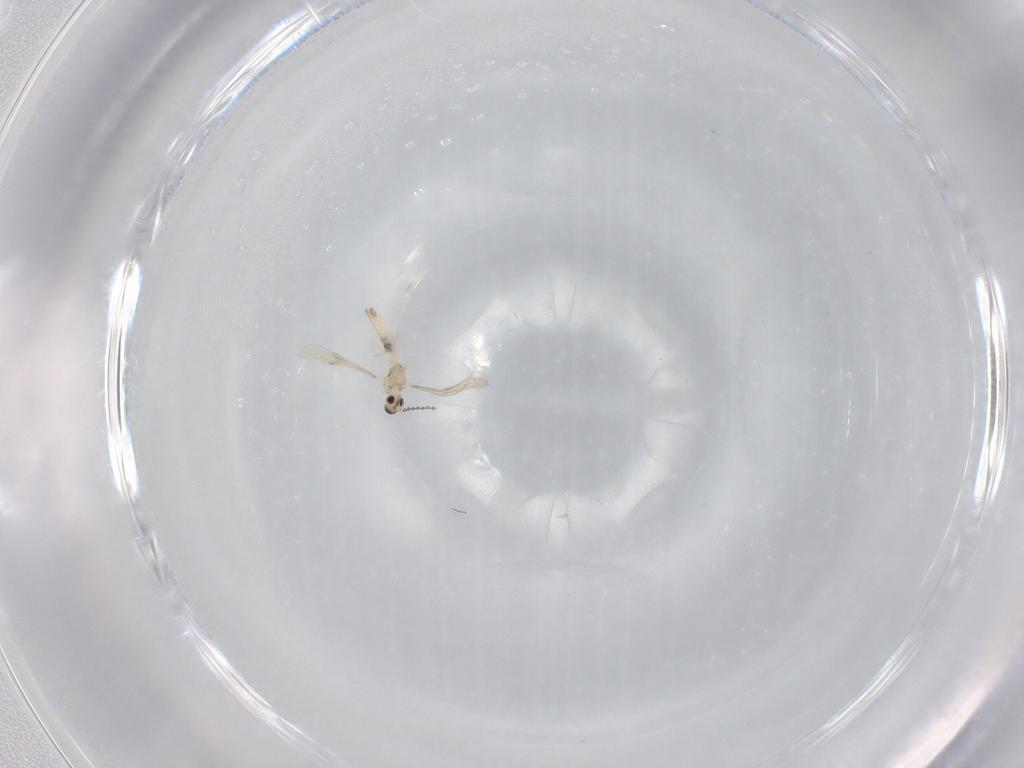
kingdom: Animalia
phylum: Arthropoda
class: Insecta
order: Diptera
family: Cecidomyiidae
